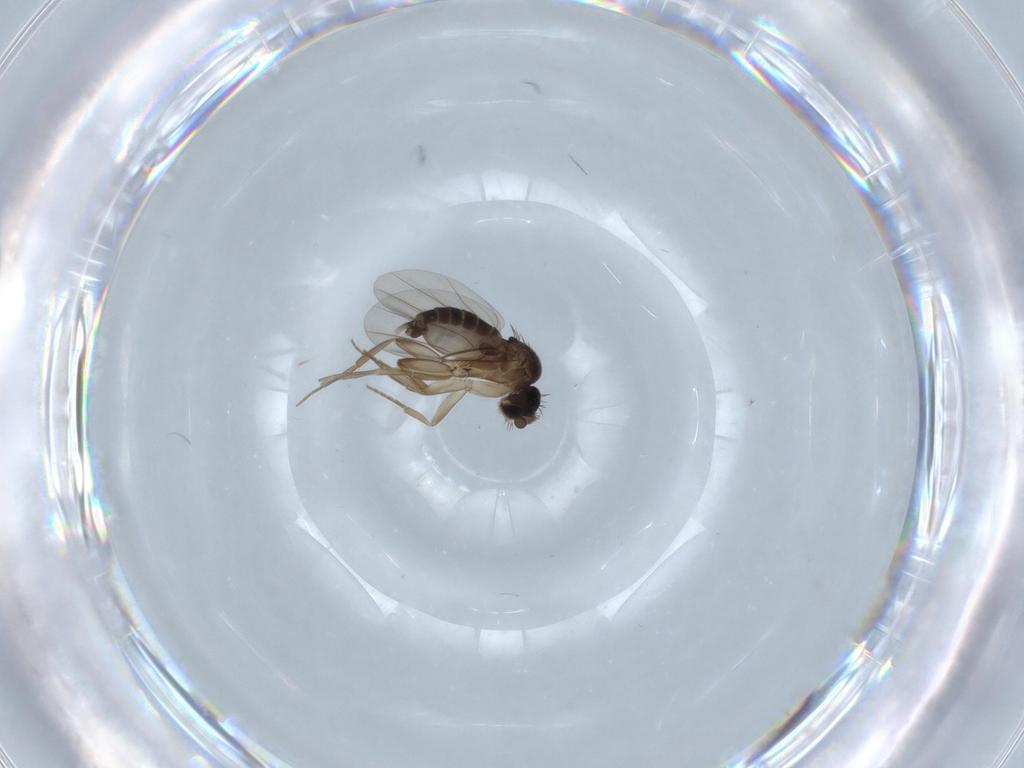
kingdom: Animalia
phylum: Arthropoda
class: Insecta
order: Diptera
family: Phoridae
